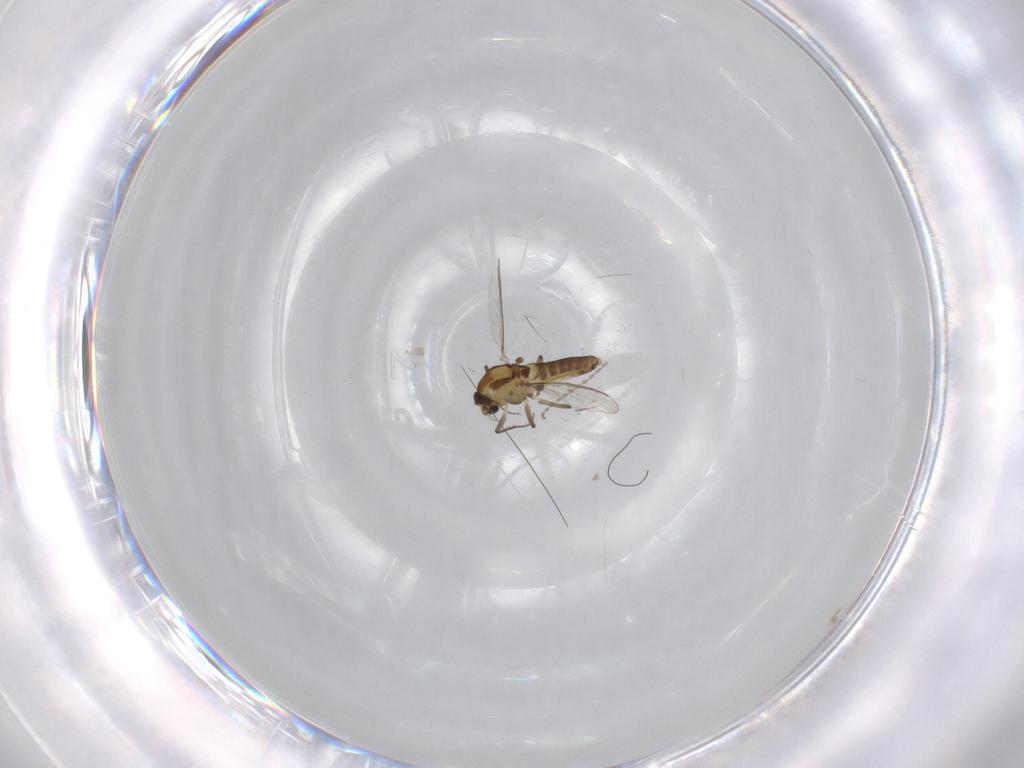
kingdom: Animalia
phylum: Arthropoda
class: Insecta
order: Diptera
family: Chironomidae
